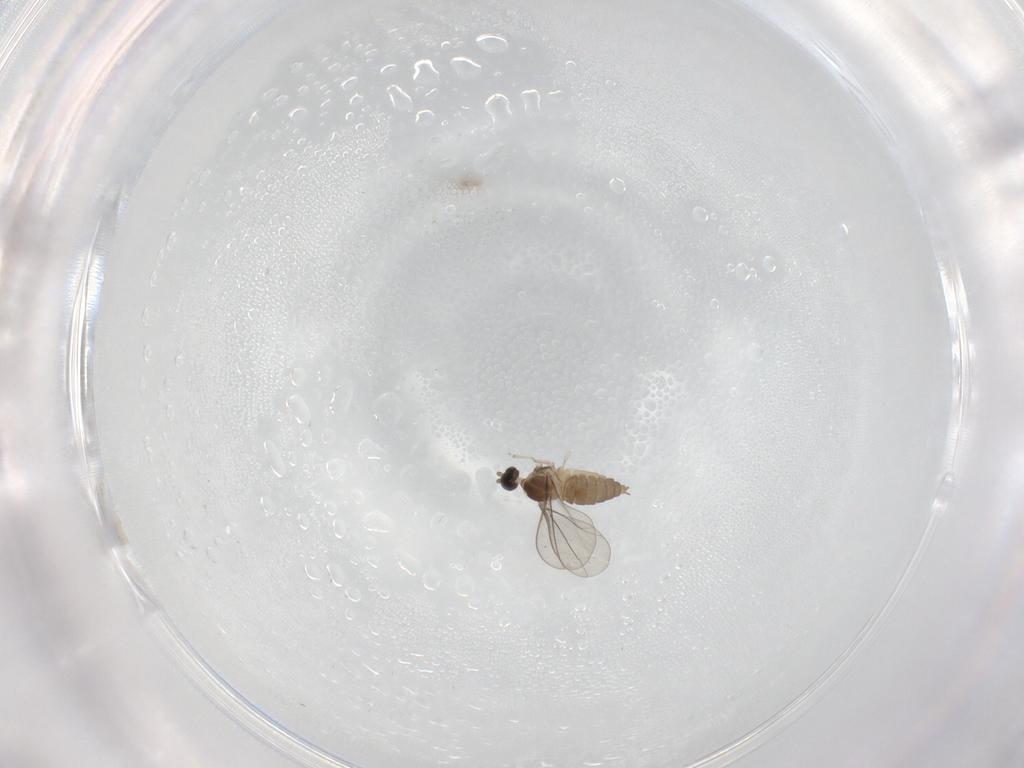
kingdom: Animalia
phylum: Arthropoda
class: Insecta
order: Diptera
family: Cecidomyiidae
